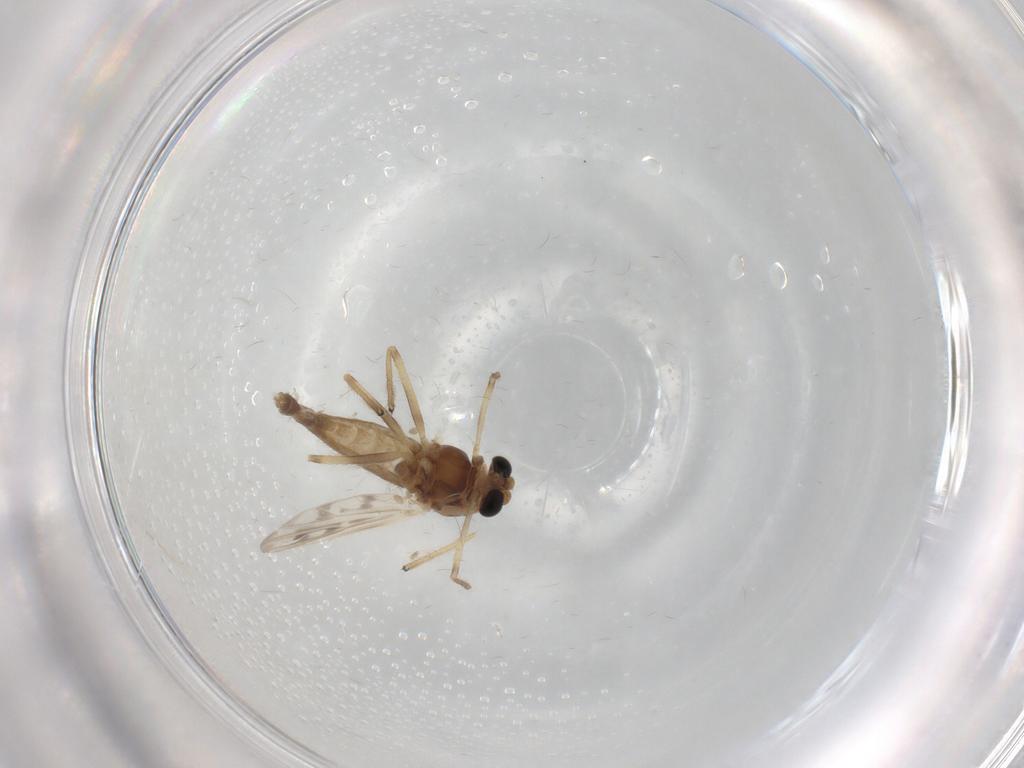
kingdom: Animalia
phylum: Arthropoda
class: Insecta
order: Diptera
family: Chironomidae
